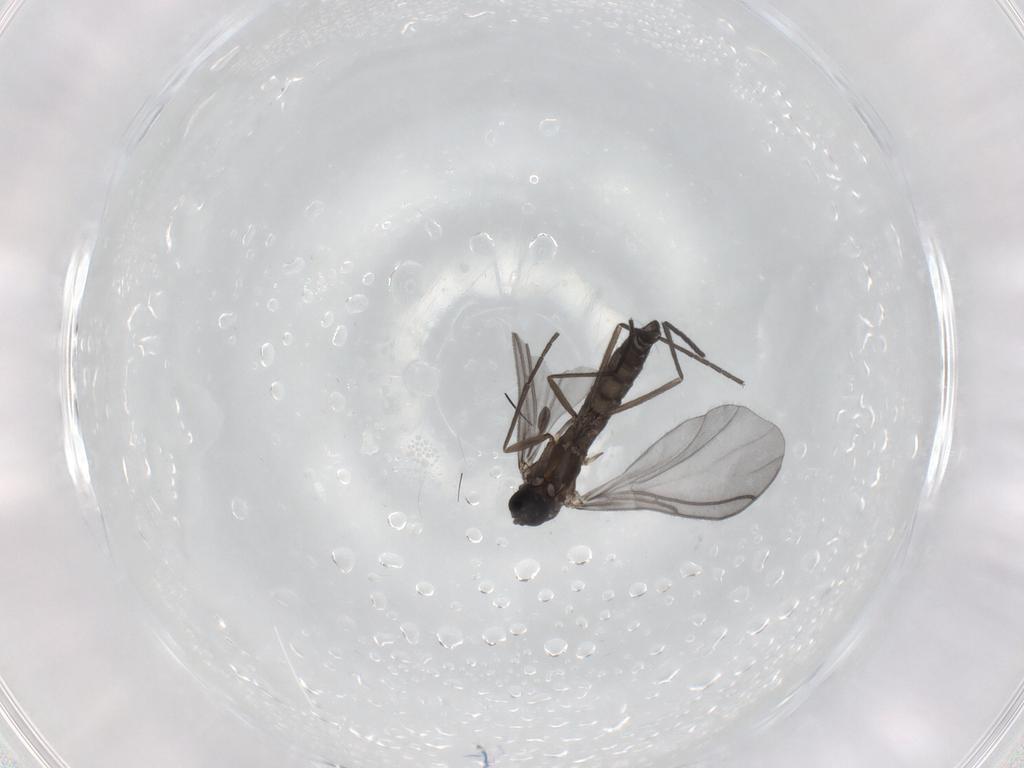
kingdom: Animalia
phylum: Arthropoda
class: Insecta
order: Diptera
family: Chironomidae
